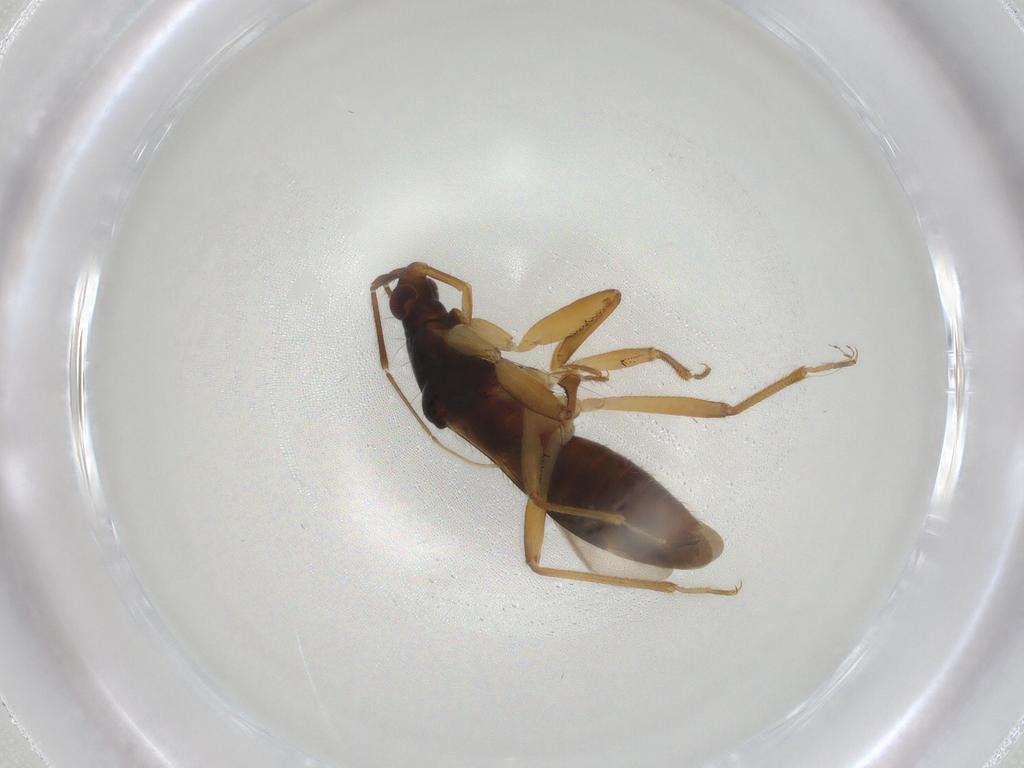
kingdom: Animalia
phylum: Arthropoda
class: Insecta
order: Hemiptera
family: Nabidae
